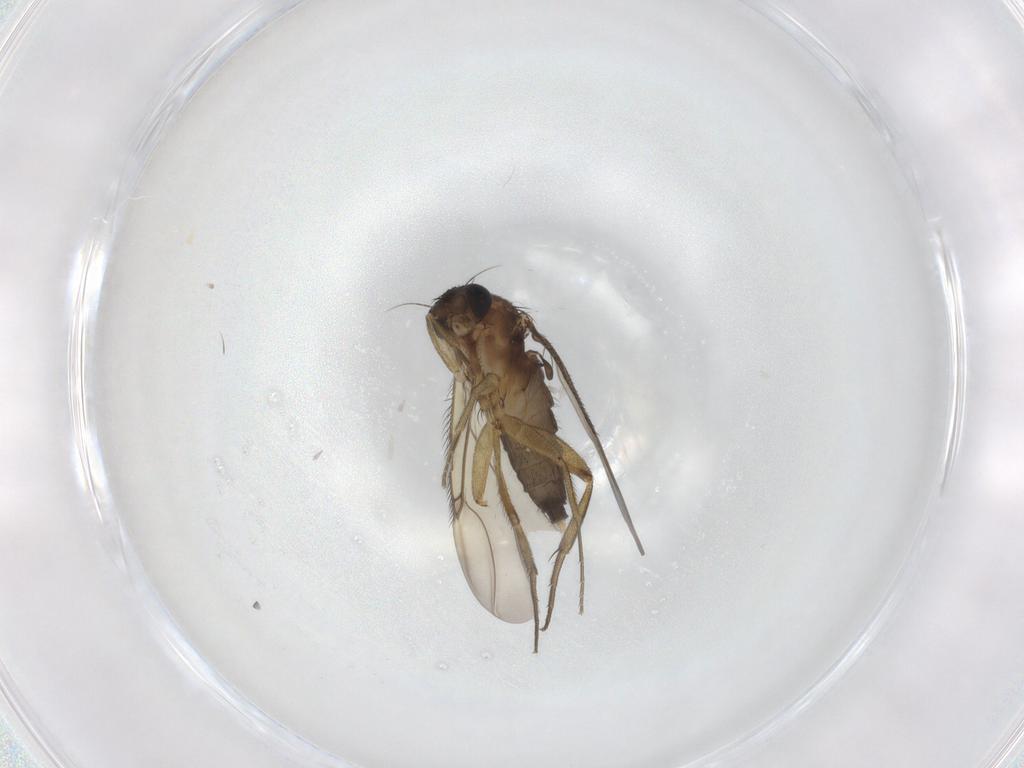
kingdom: Animalia
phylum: Arthropoda
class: Insecta
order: Diptera
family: Phoridae
